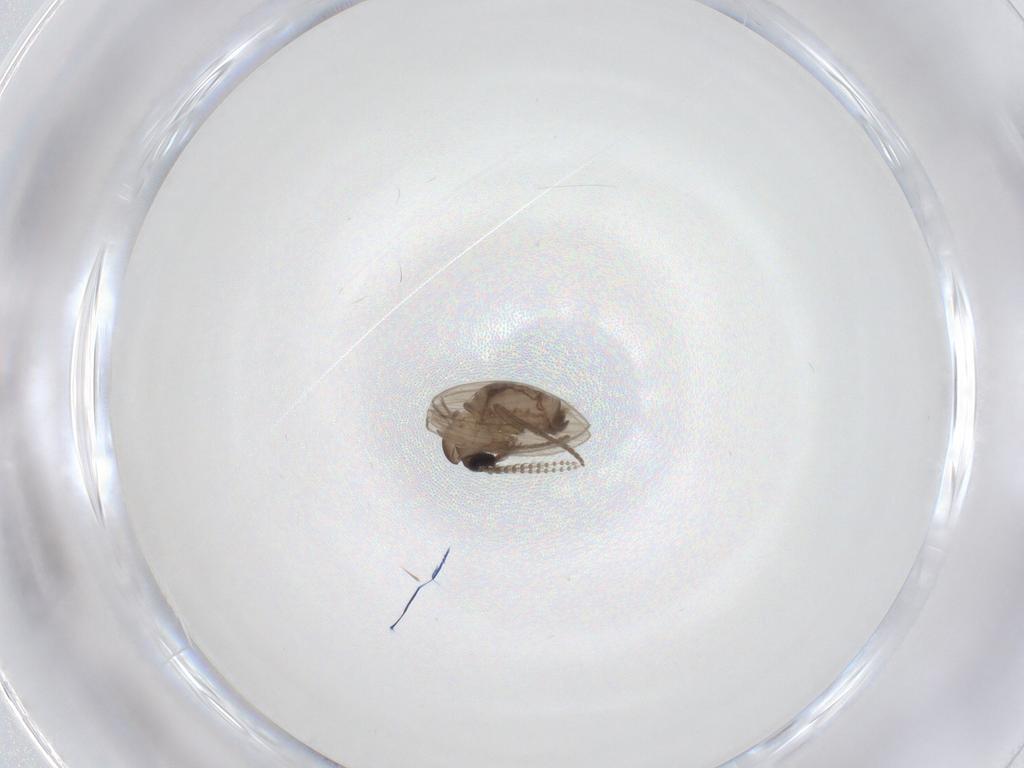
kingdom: Animalia
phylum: Arthropoda
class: Insecta
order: Diptera
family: Psychodidae
